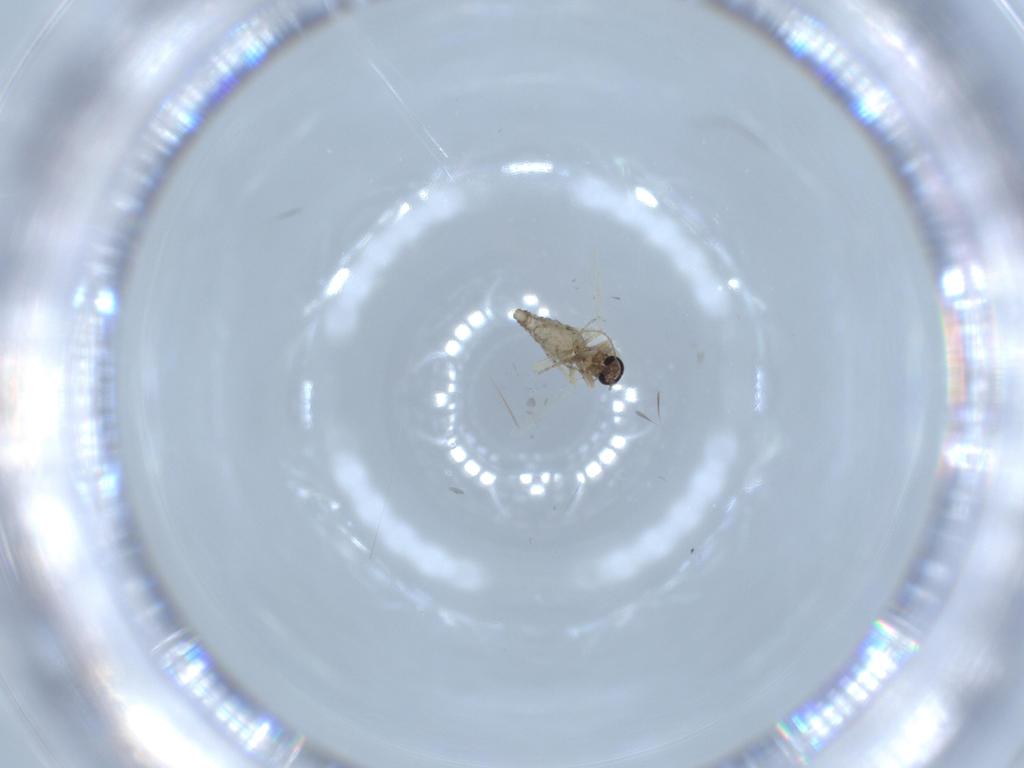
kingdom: Animalia
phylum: Arthropoda
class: Insecta
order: Diptera
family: Ceratopogonidae
